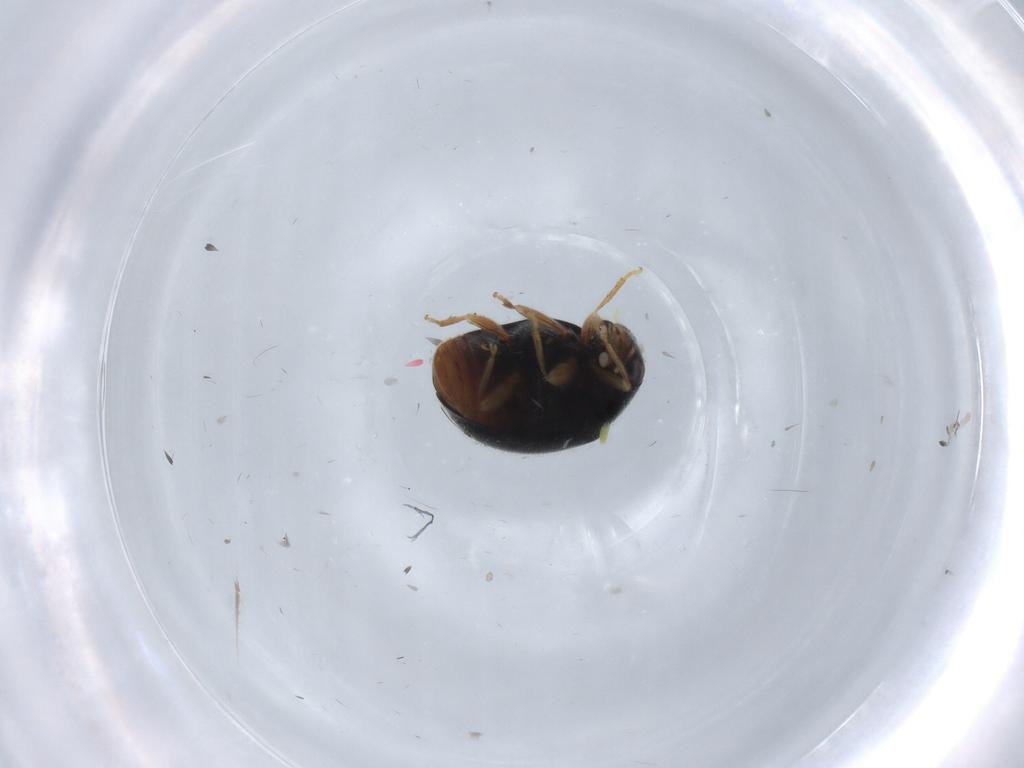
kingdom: Animalia
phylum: Arthropoda
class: Insecta
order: Coleoptera
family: Coccinellidae
